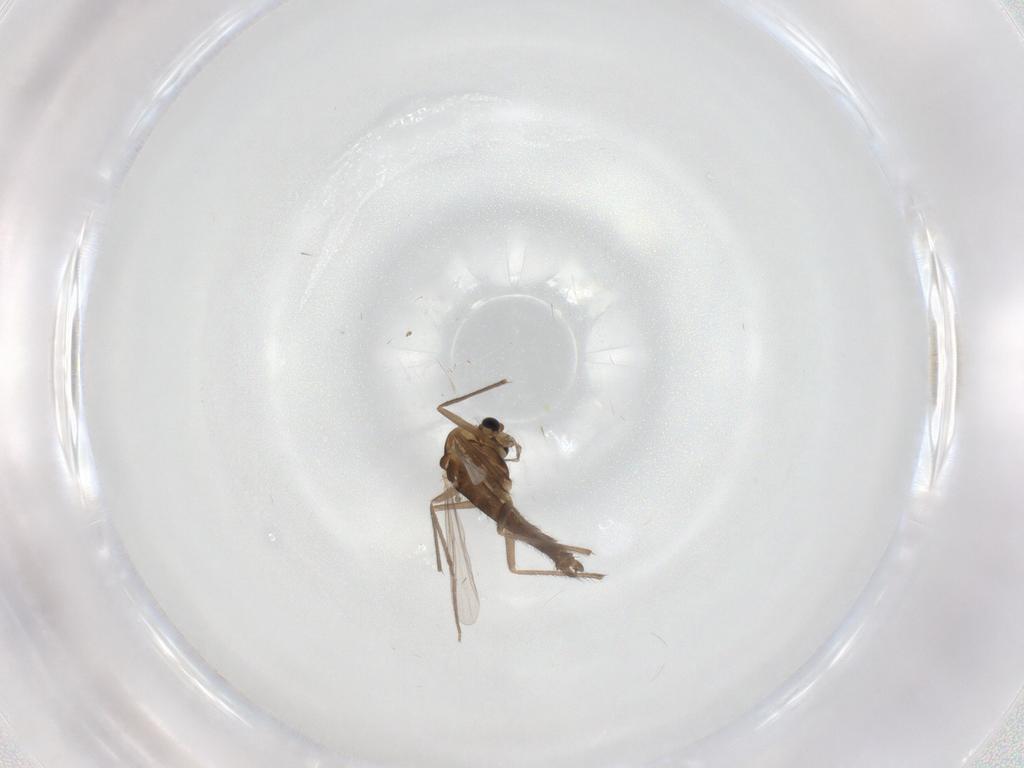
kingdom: Animalia
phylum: Arthropoda
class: Insecta
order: Diptera
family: Chironomidae
